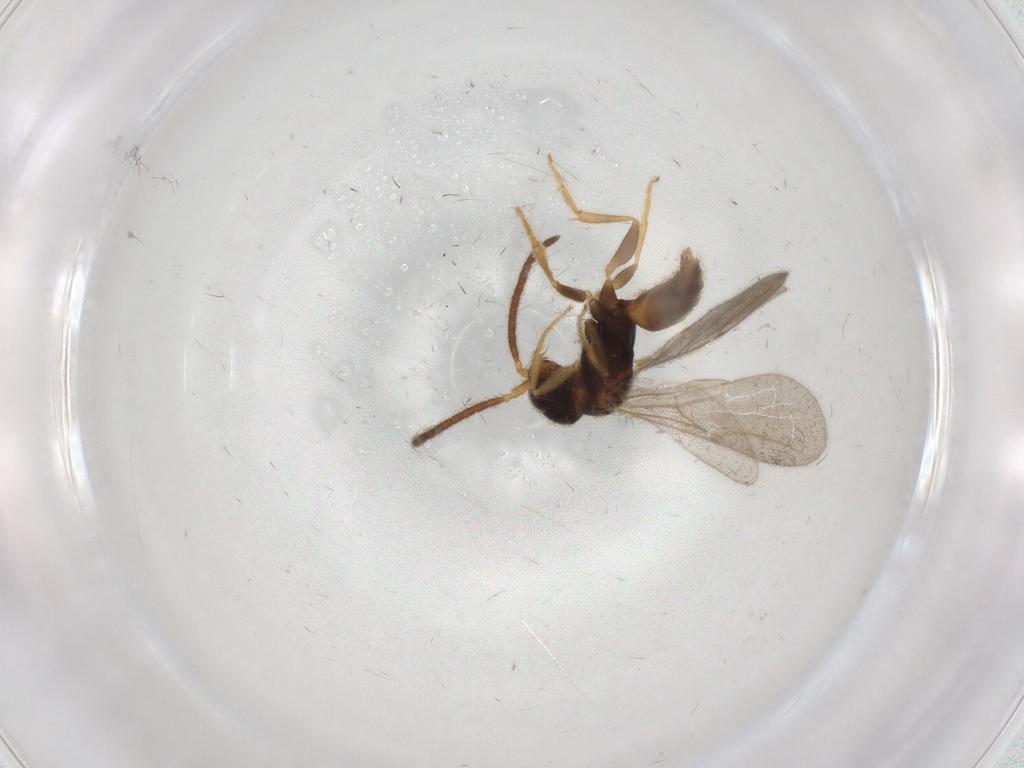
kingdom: Animalia
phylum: Arthropoda
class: Insecta
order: Hymenoptera
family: Bethylidae
